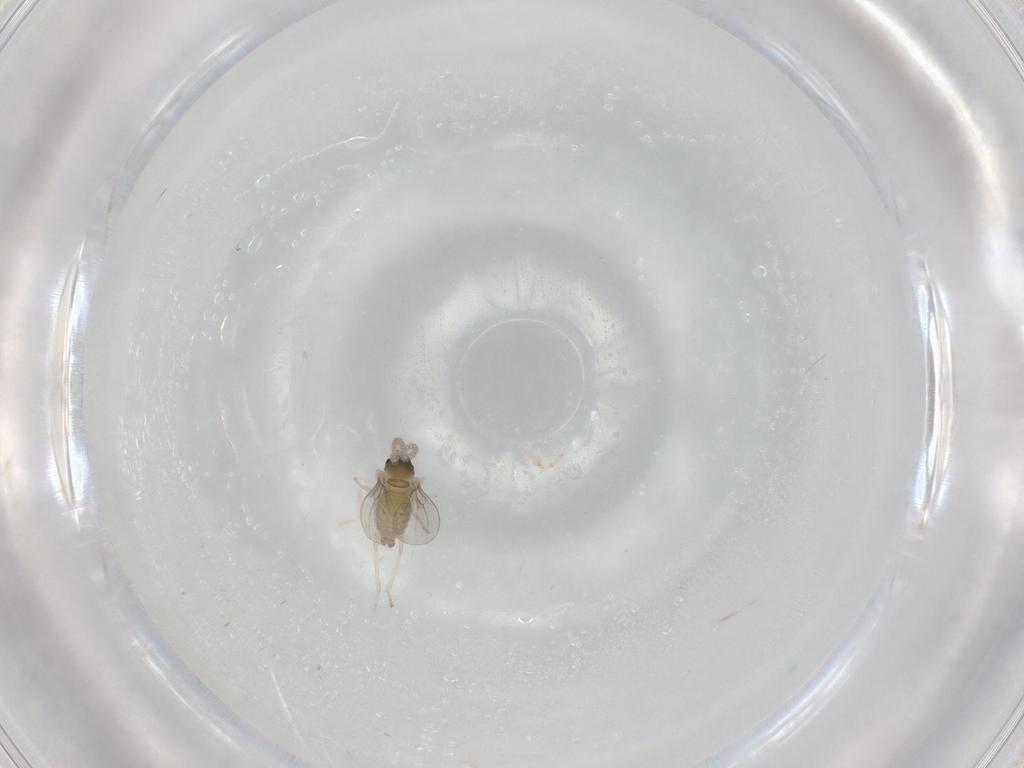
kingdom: Animalia
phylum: Arthropoda
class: Insecta
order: Diptera
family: Cecidomyiidae
